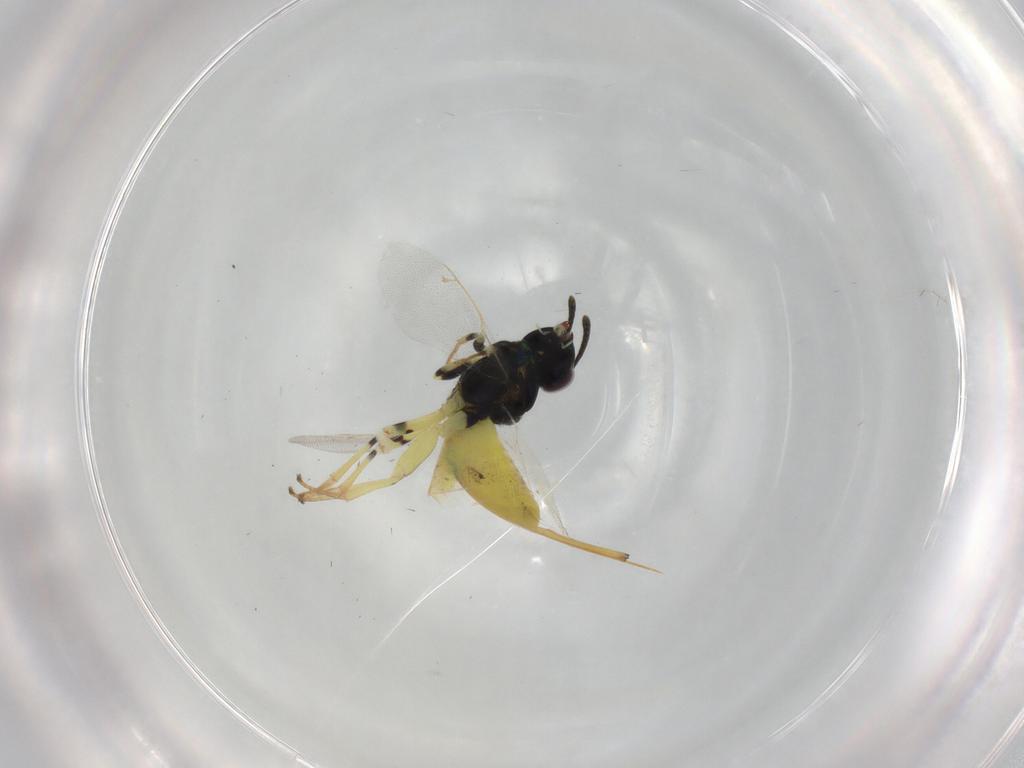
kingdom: Animalia
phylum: Arthropoda
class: Insecta
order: Hymenoptera
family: Eupelmidae
